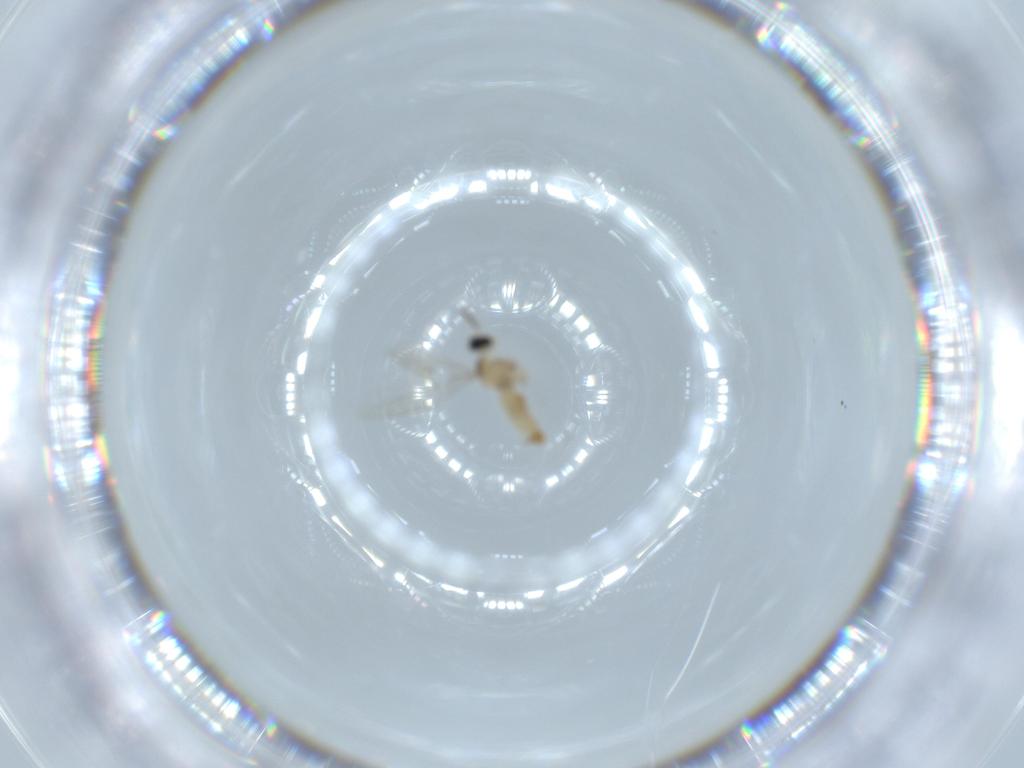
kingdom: Animalia
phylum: Arthropoda
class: Insecta
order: Diptera
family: Cecidomyiidae
